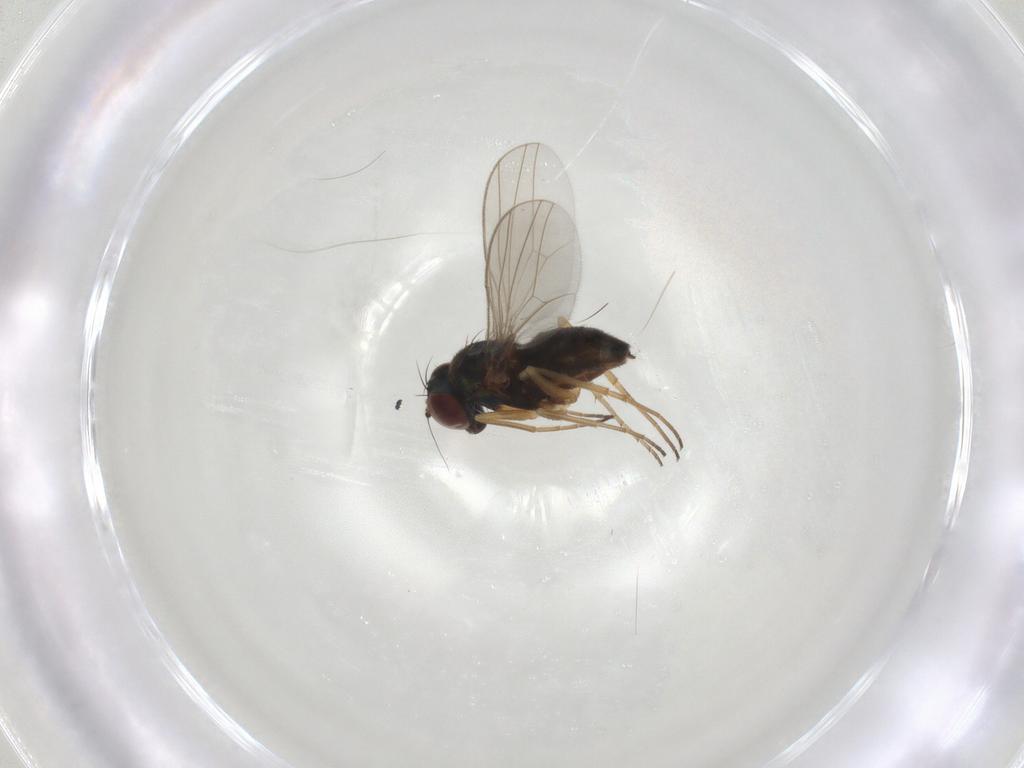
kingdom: Animalia
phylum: Arthropoda
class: Insecta
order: Diptera
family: Dolichopodidae
